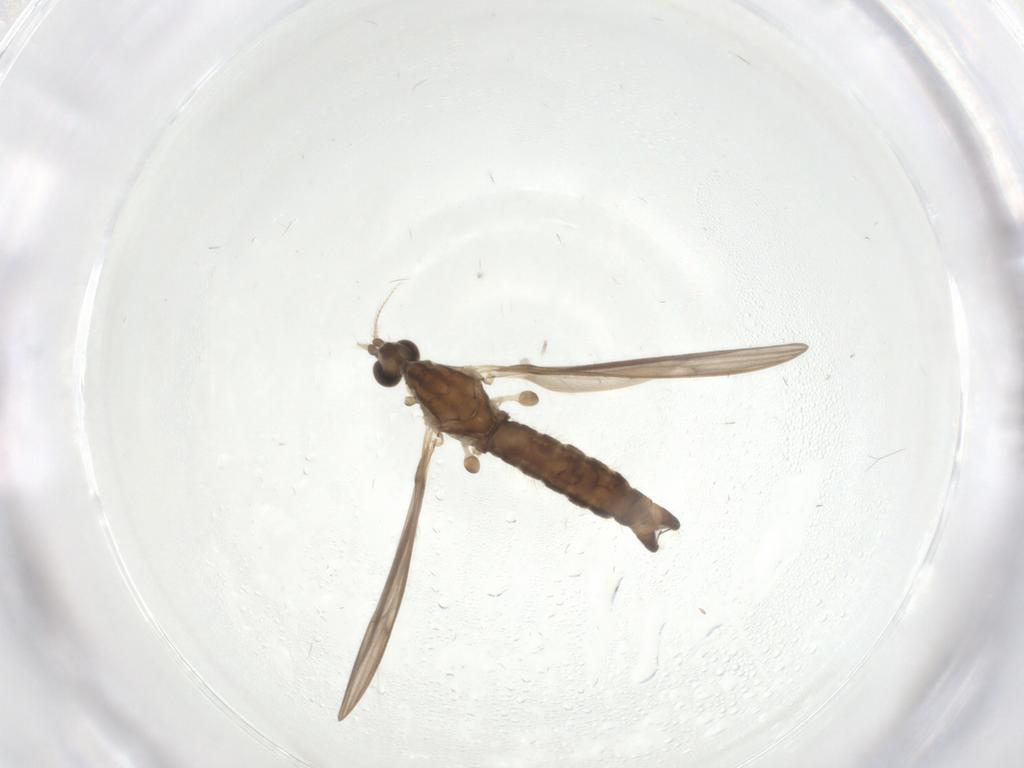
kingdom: Animalia
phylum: Arthropoda
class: Insecta
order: Diptera
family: Limoniidae
